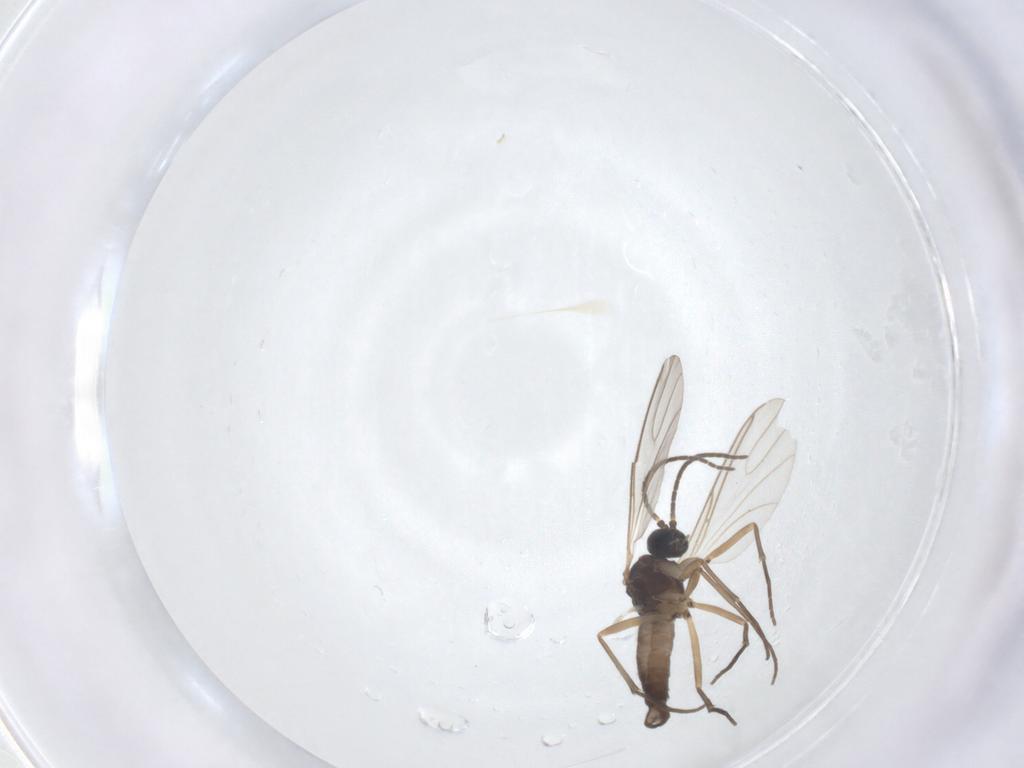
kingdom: Animalia
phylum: Arthropoda
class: Insecta
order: Diptera
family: Sciaridae
